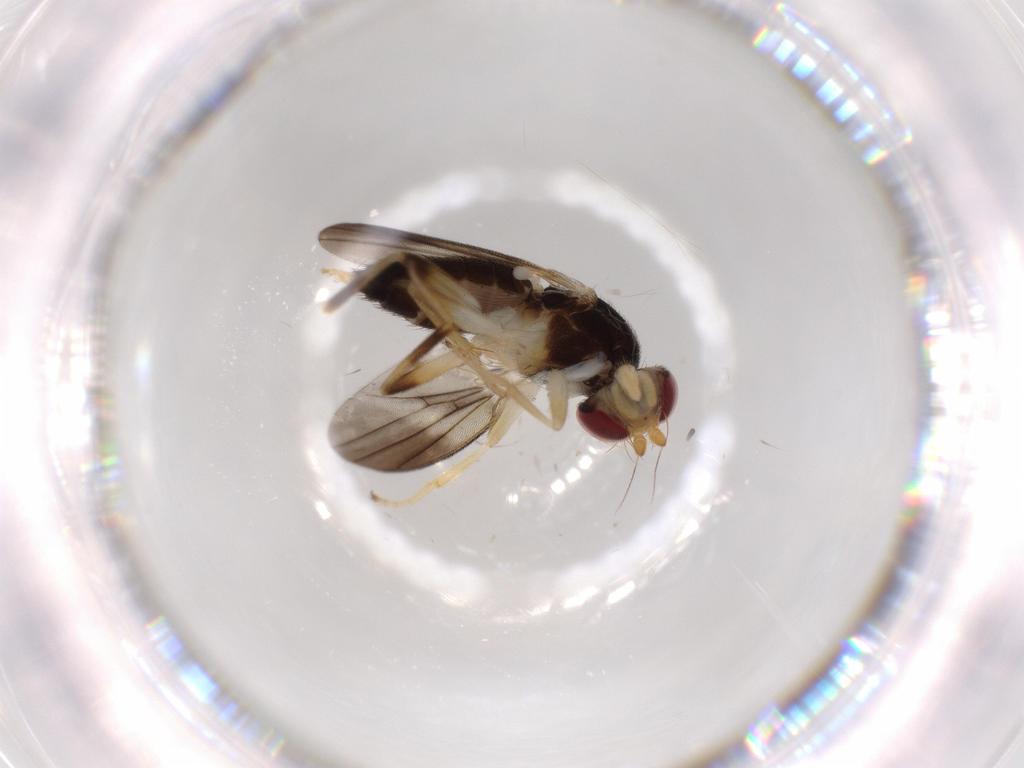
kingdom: Animalia
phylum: Arthropoda
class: Insecta
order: Diptera
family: Clusiidae
